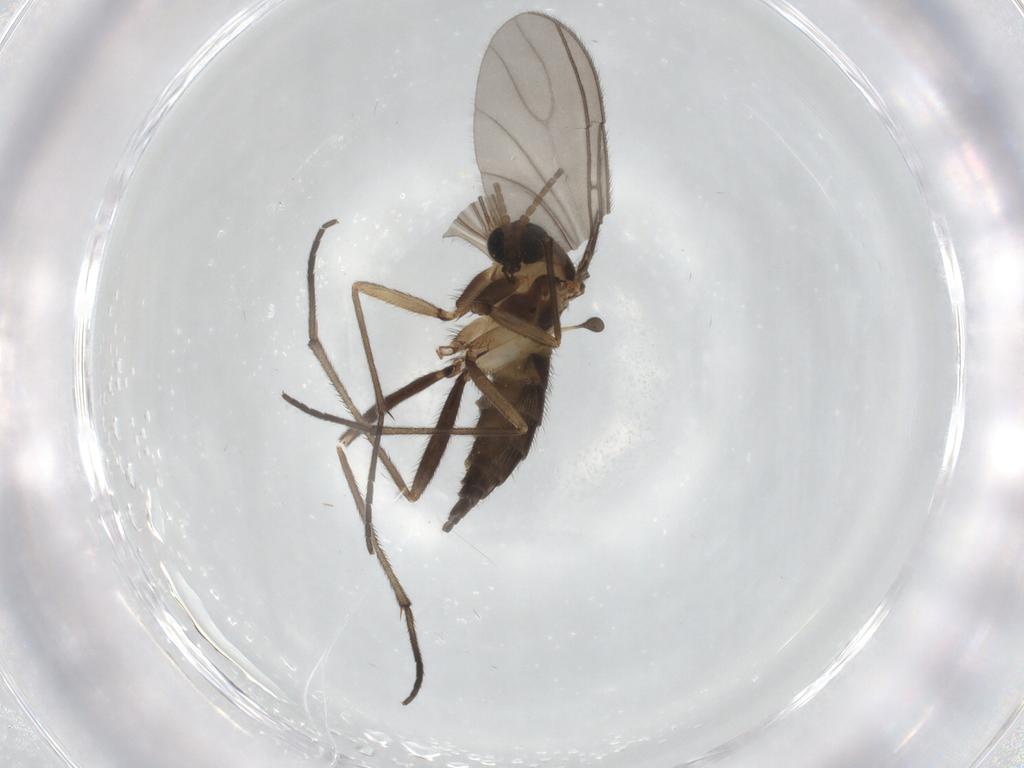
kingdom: Animalia
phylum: Arthropoda
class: Insecta
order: Diptera
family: Sciaridae
